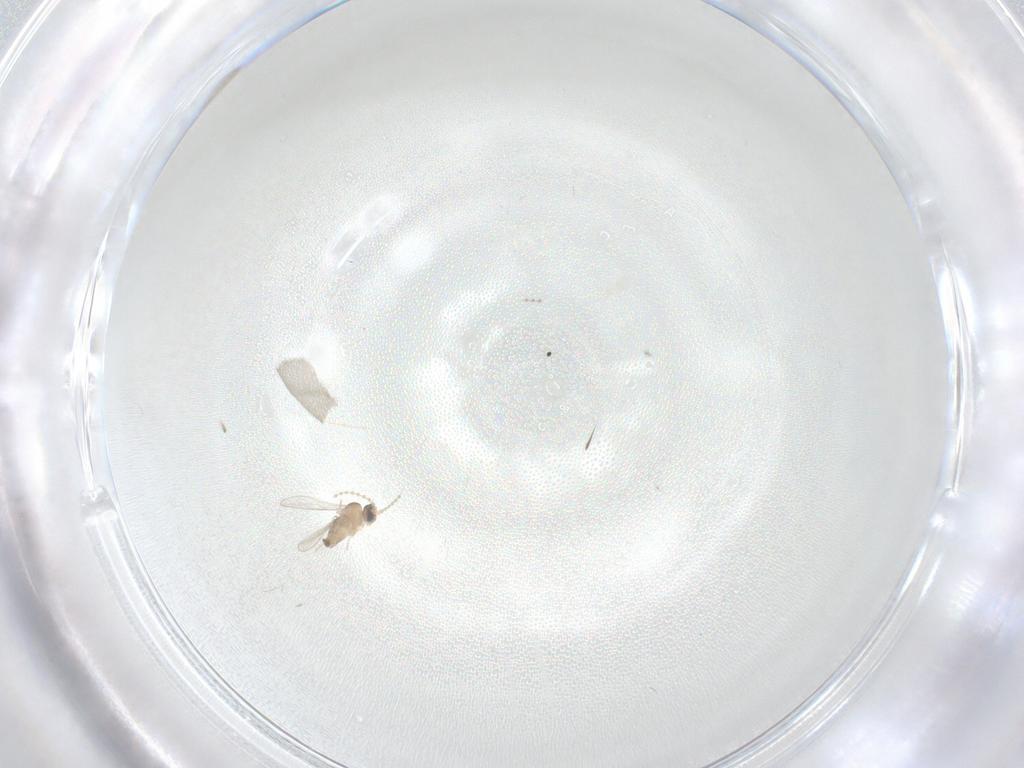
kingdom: Animalia
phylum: Arthropoda
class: Insecta
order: Diptera
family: Cecidomyiidae
